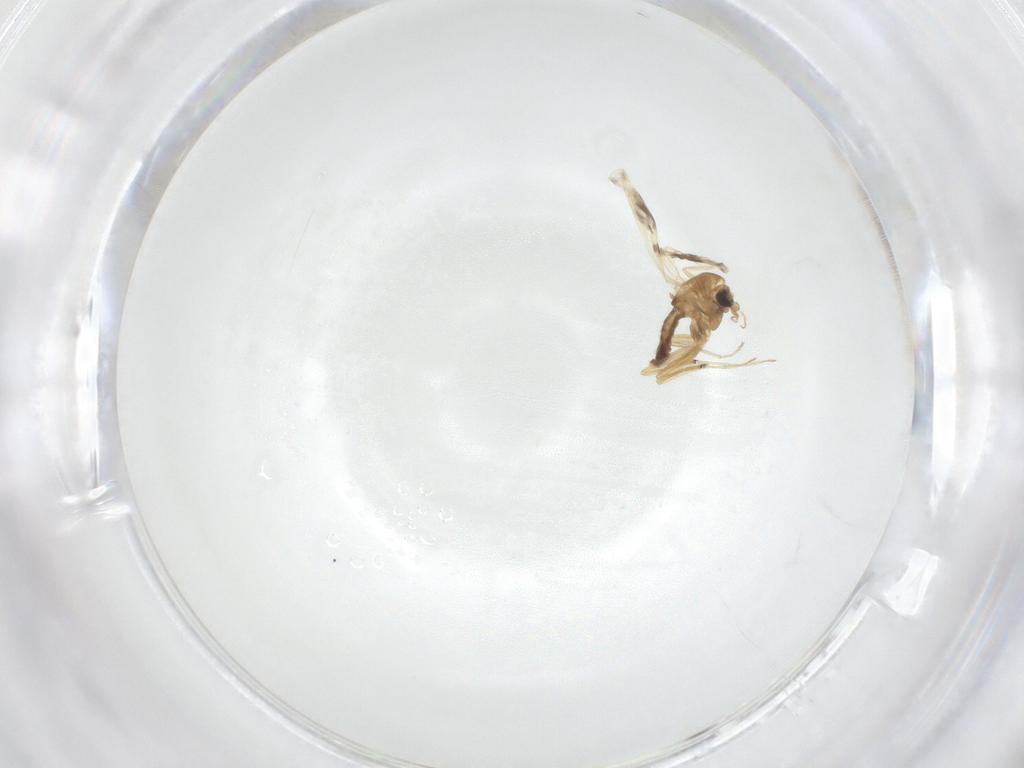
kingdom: Animalia
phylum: Arthropoda
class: Insecta
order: Diptera
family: Chironomidae
